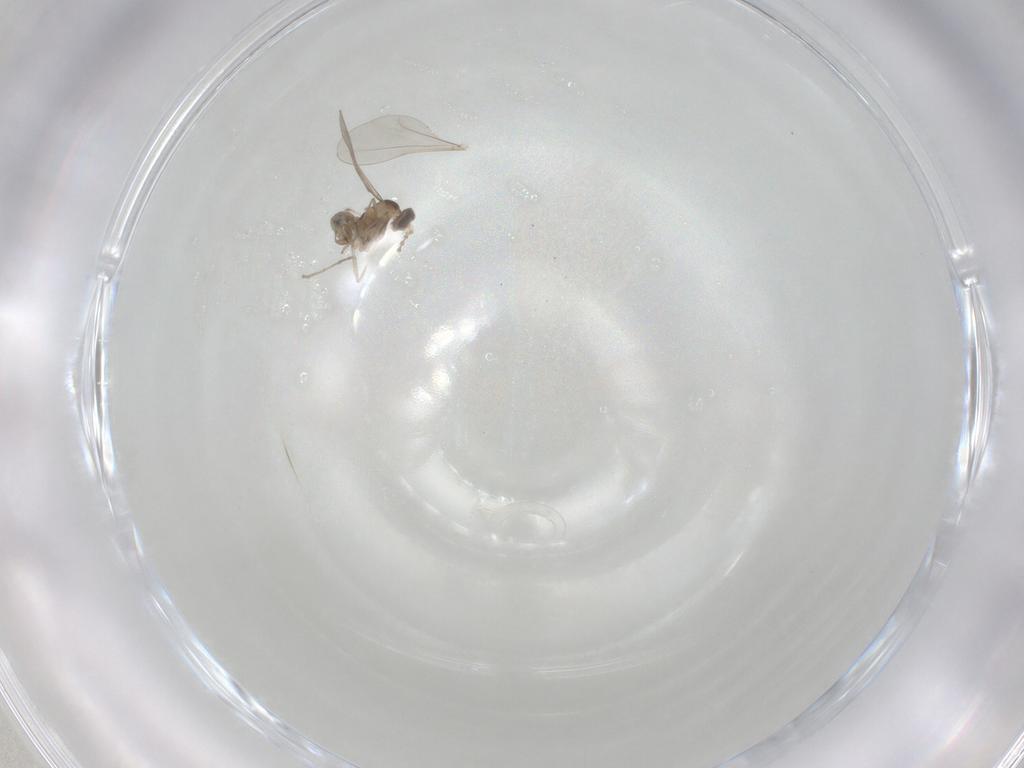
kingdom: Animalia
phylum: Arthropoda
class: Insecta
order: Diptera
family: Cecidomyiidae
